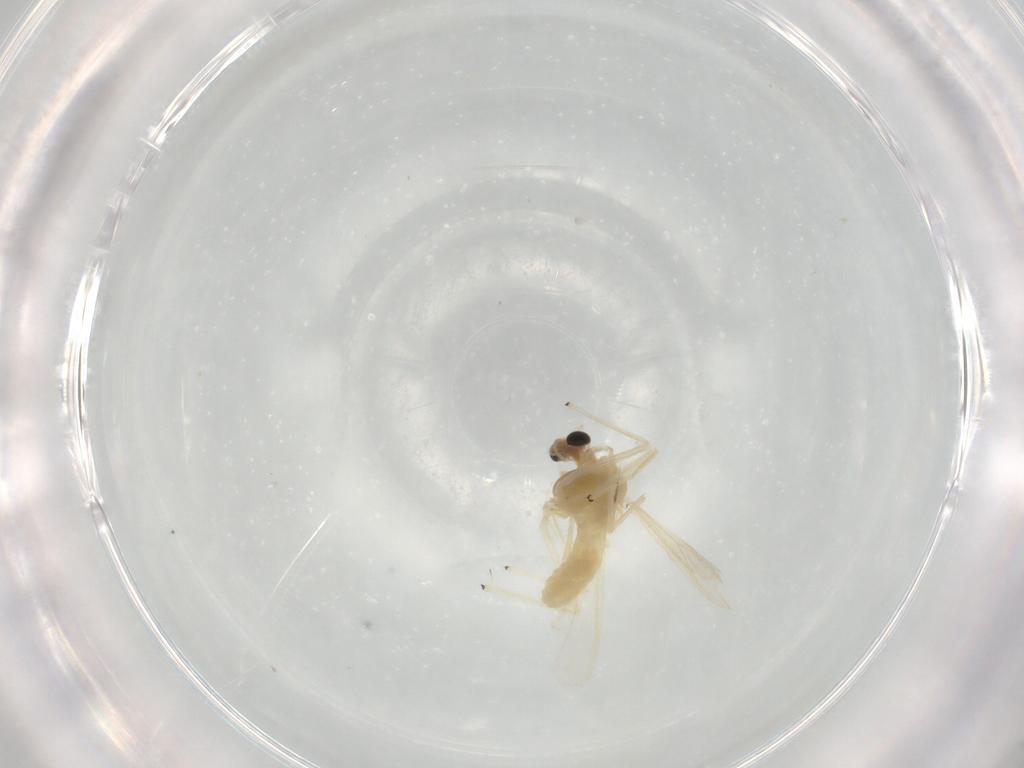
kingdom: Animalia
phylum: Arthropoda
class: Insecta
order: Diptera
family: Chironomidae
